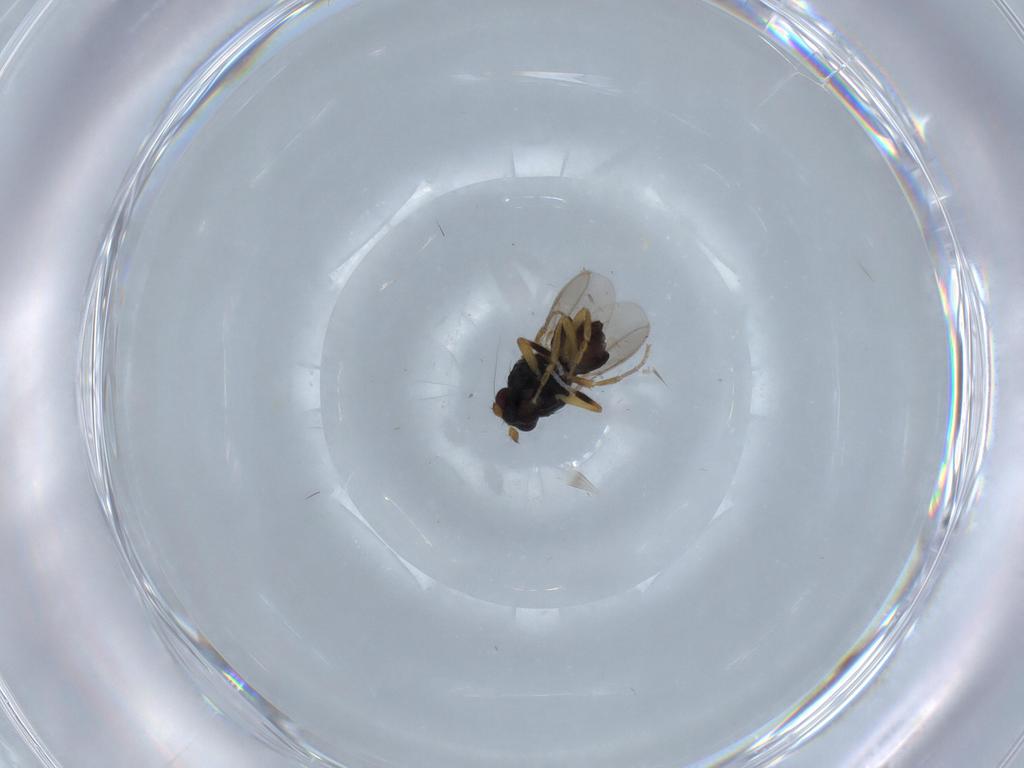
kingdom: Animalia
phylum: Arthropoda
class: Insecta
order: Diptera
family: Sphaeroceridae
